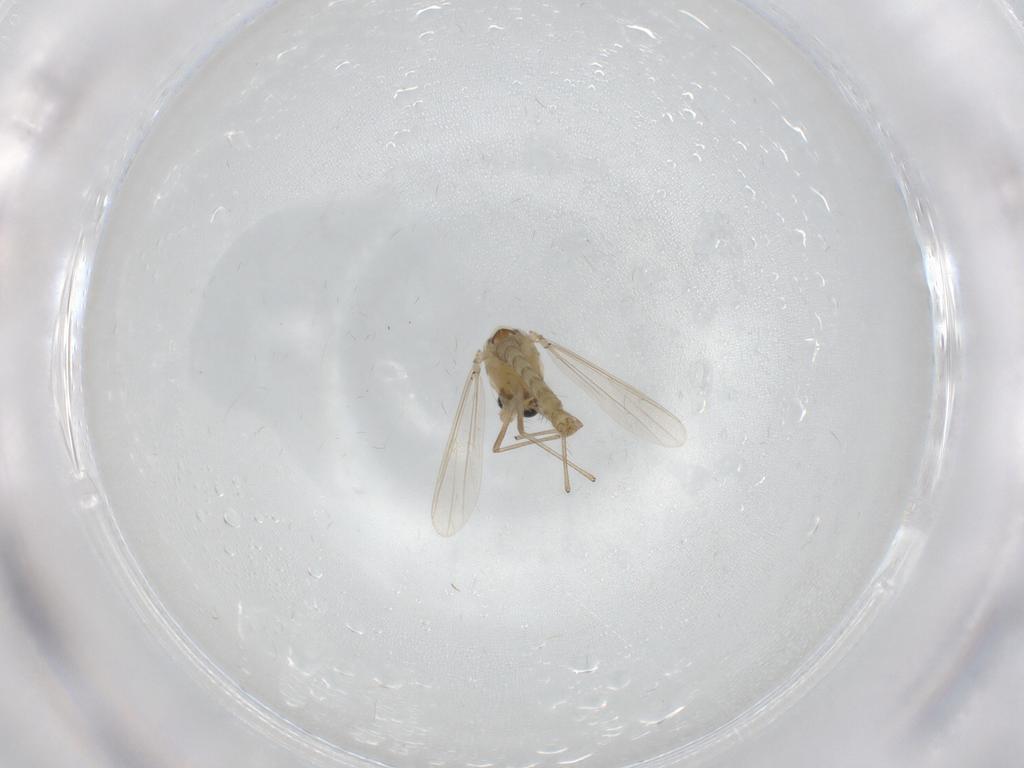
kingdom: Animalia
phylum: Arthropoda
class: Insecta
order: Diptera
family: Chironomidae
